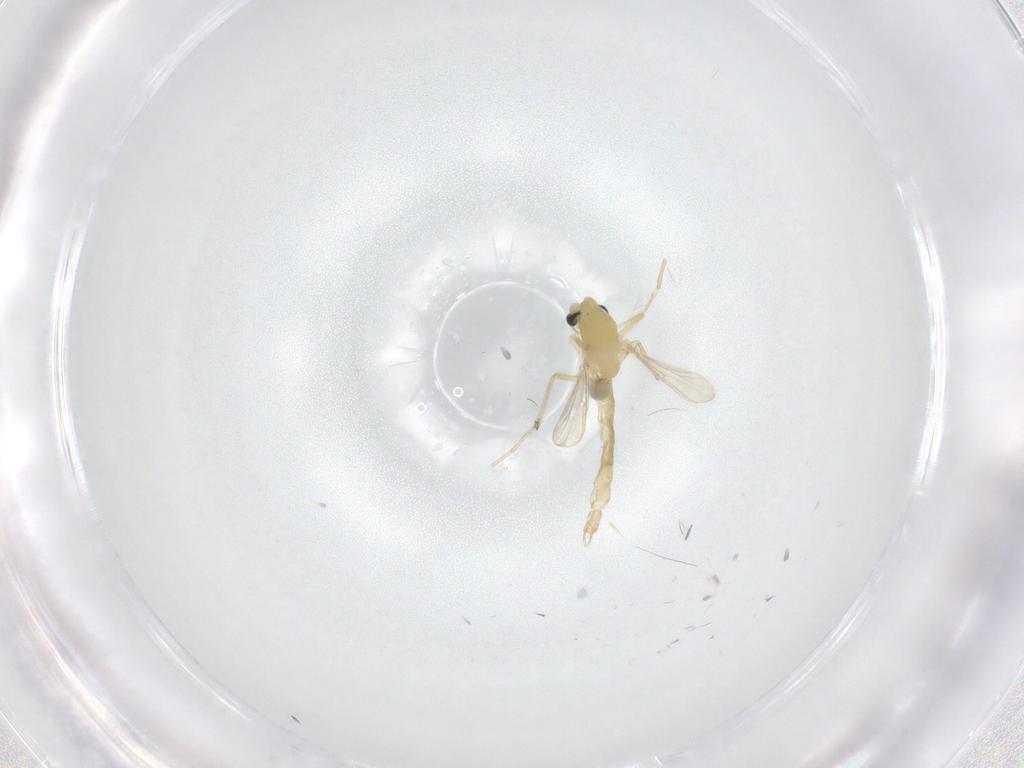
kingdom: Animalia
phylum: Arthropoda
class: Insecta
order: Diptera
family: Chironomidae
